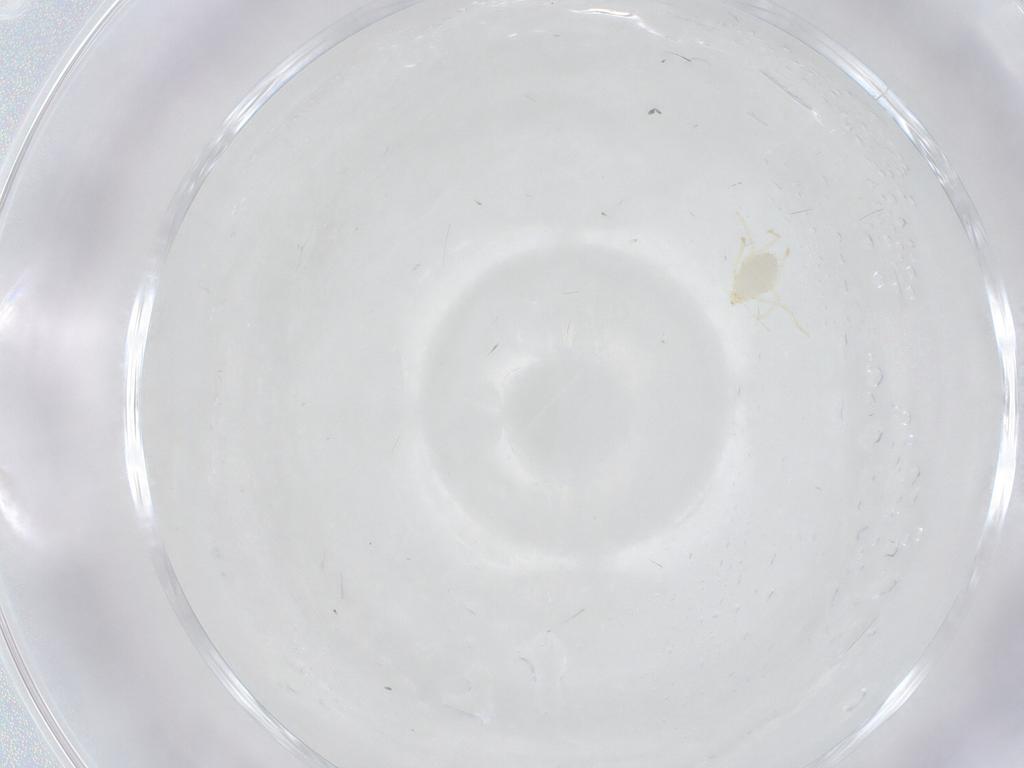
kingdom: Animalia
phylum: Arthropoda
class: Arachnida
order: Trombidiformes
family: Erythraeidae
